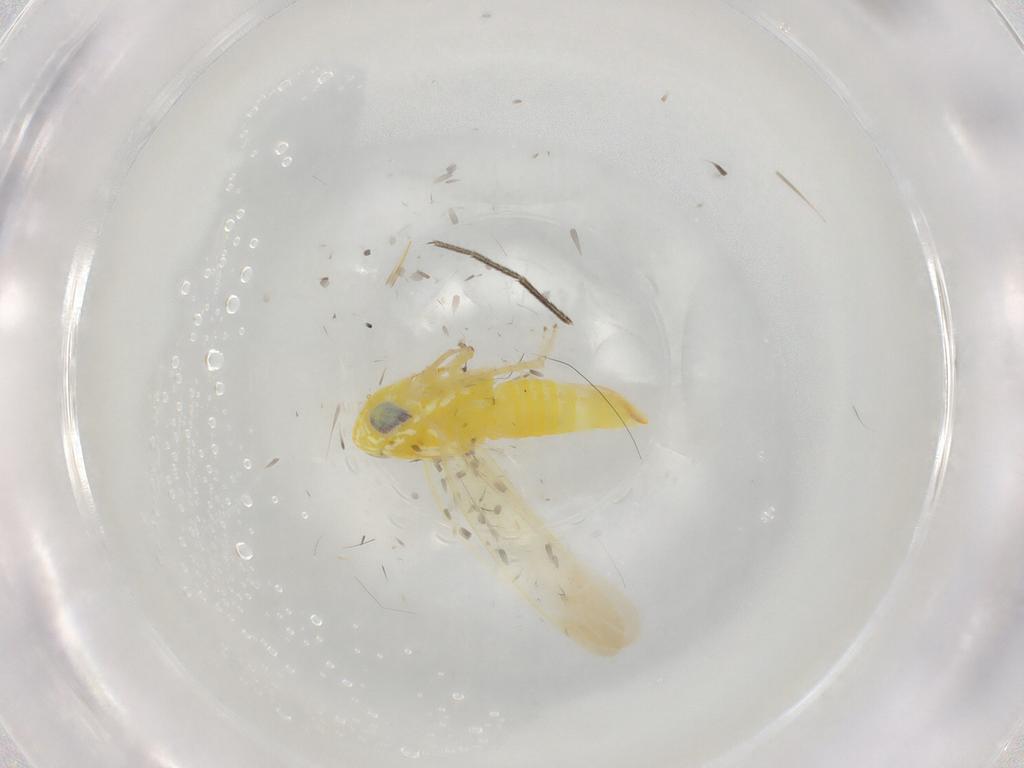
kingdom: Animalia
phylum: Arthropoda
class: Insecta
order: Hemiptera
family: Cicadellidae
